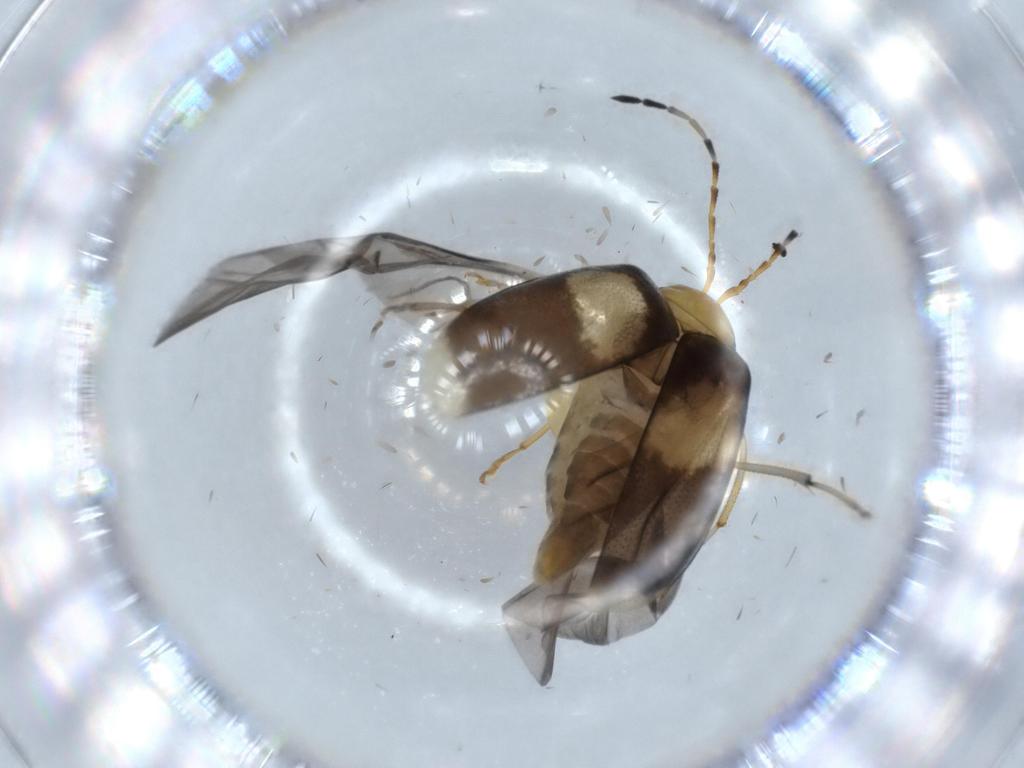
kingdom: Animalia
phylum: Arthropoda
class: Insecta
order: Coleoptera
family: Chrysomelidae
